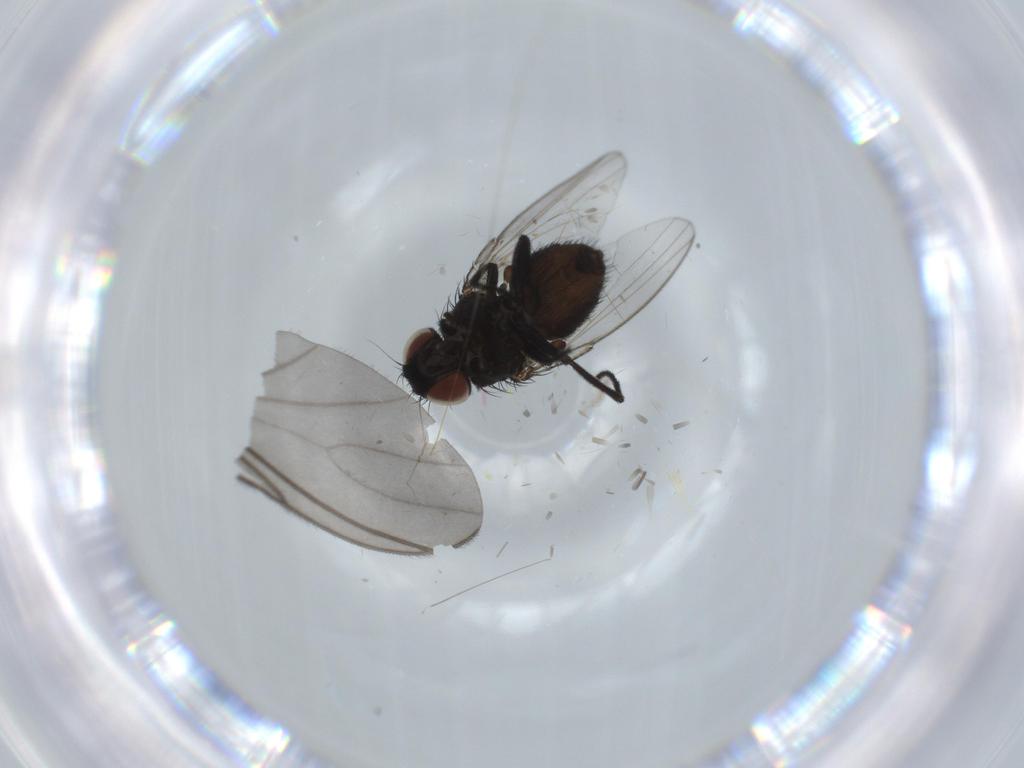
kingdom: Animalia
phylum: Arthropoda
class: Insecta
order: Diptera
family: Milichiidae
